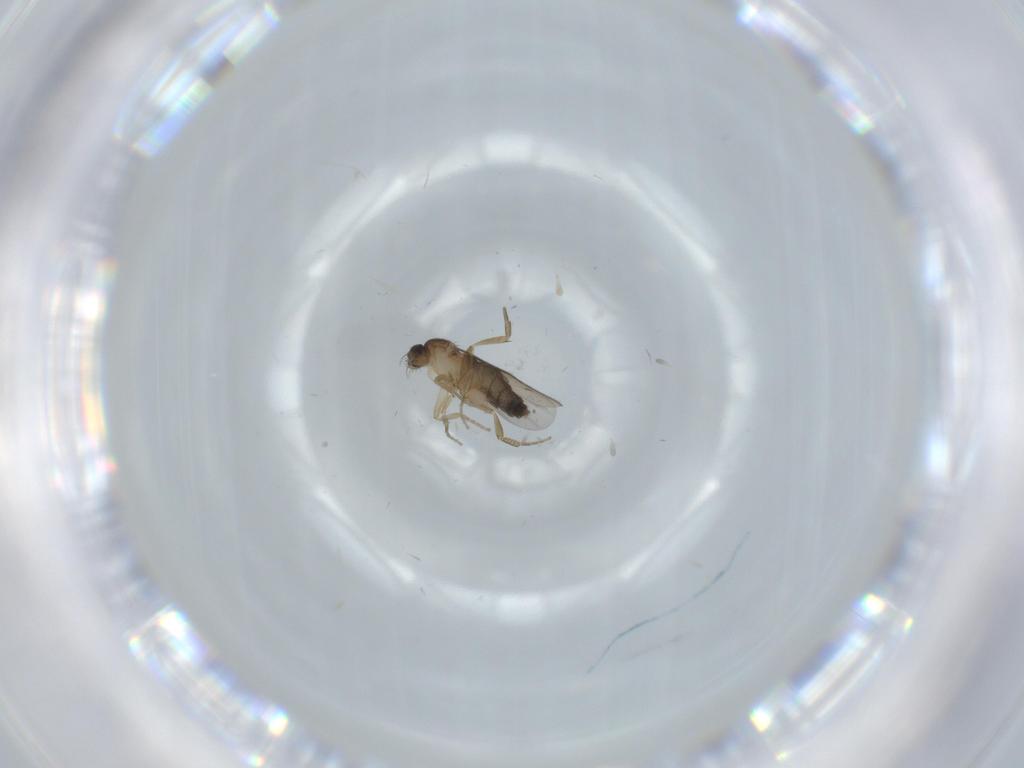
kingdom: Animalia
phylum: Arthropoda
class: Insecta
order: Diptera
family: Phoridae
